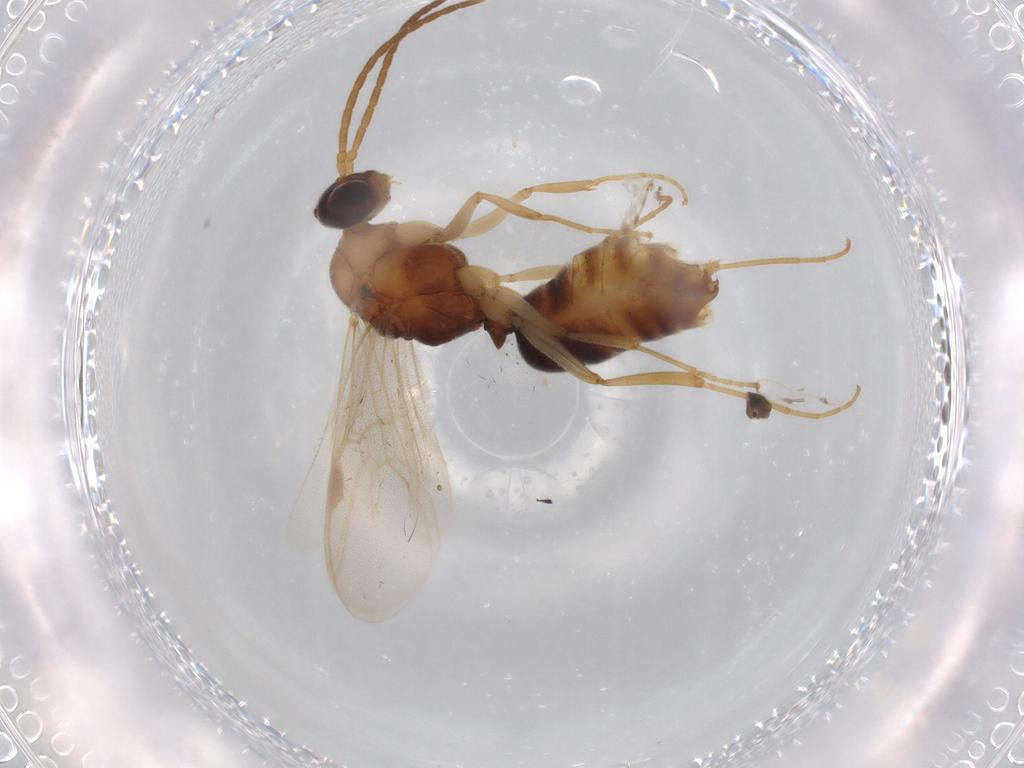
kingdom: Animalia
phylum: Arthropoda
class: Insecta
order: Hymenoptera
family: Formicidae
